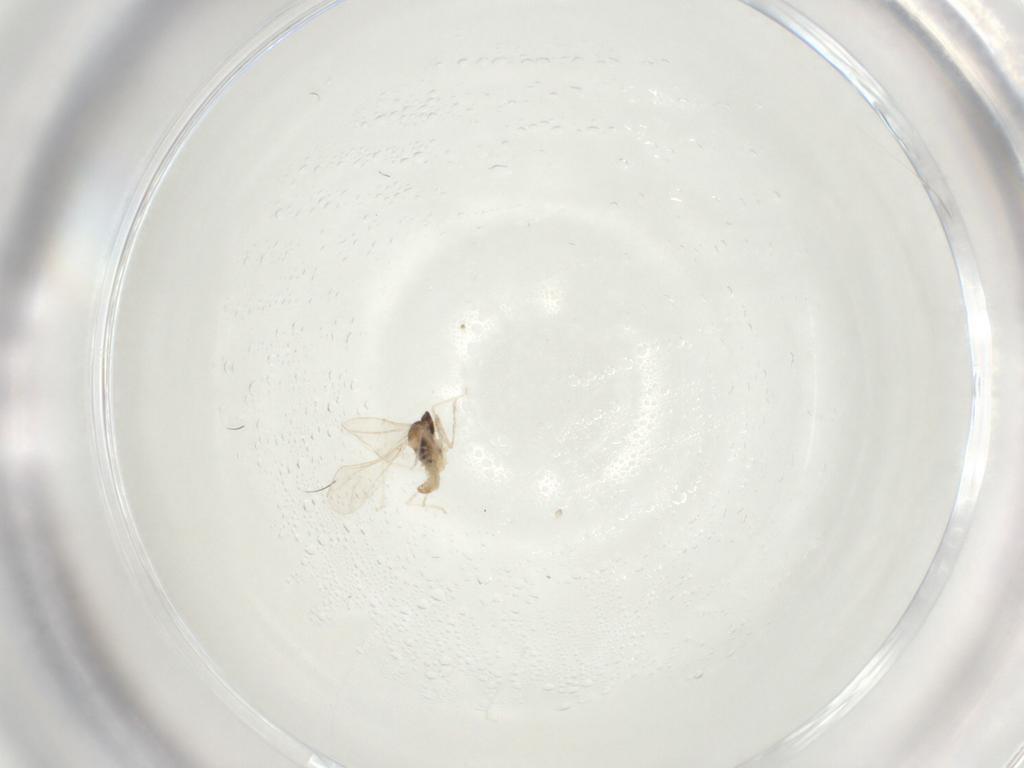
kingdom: Animalia
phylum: Arthropoda
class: Insecta
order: Diptera
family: Cecidomyiidae
